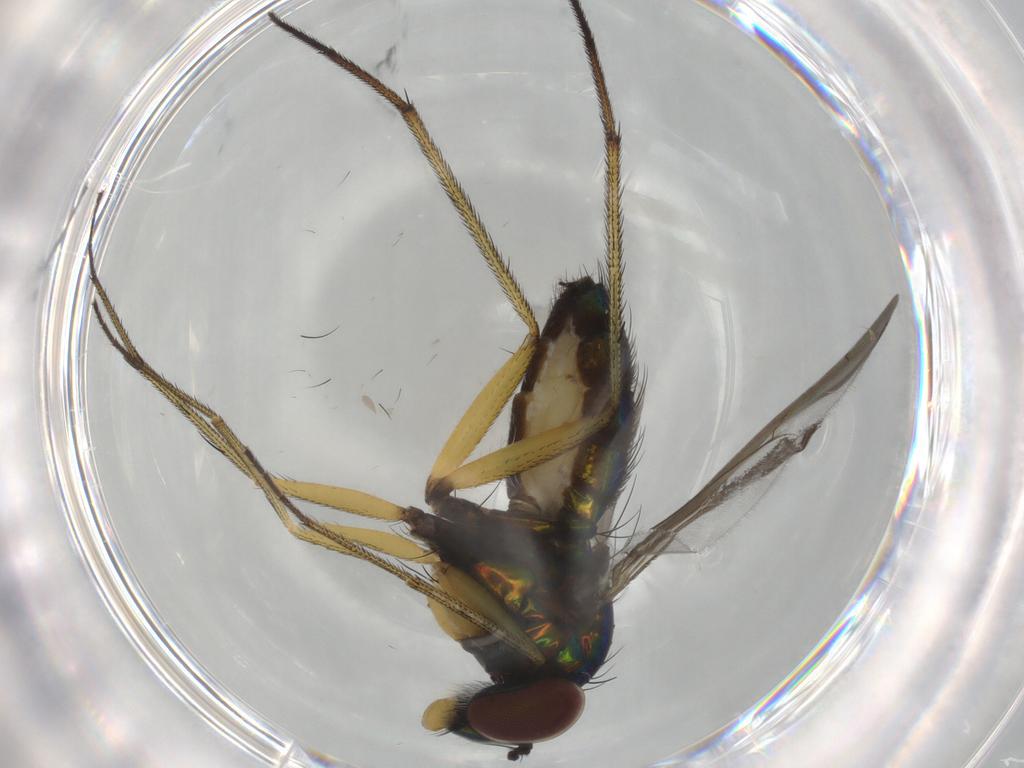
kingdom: Animalia
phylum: Arthropoda
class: Insecta
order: Diptera
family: Dolichopodidae
